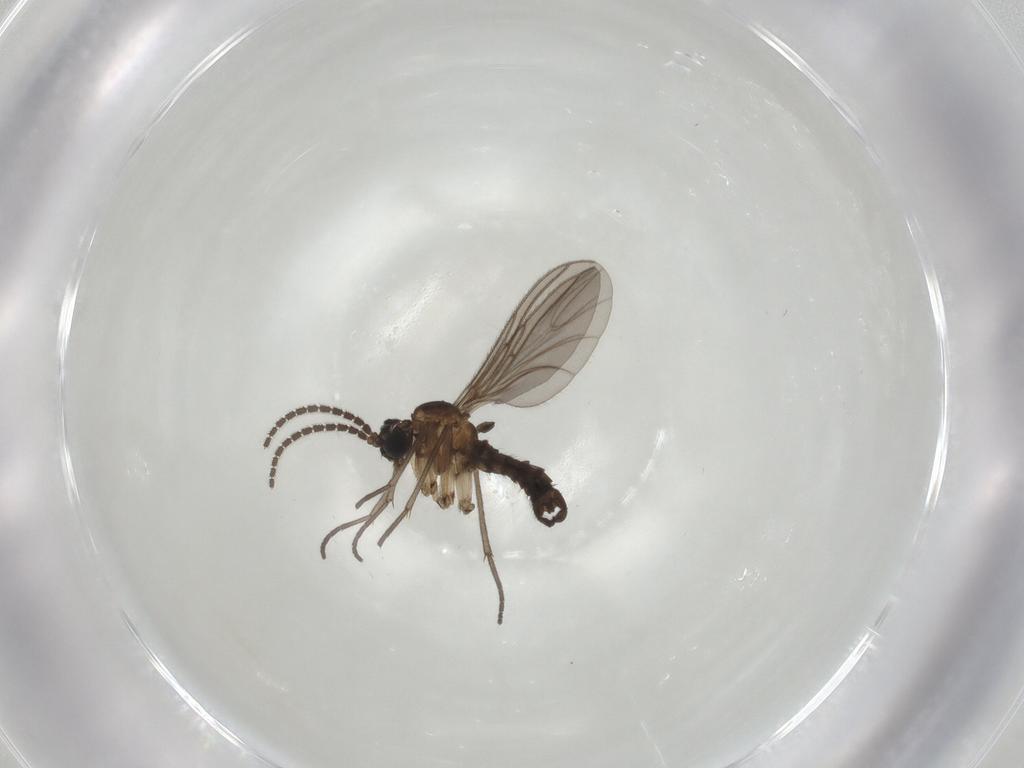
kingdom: Animalia
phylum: Arthropoda
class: Insecta
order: Diptera
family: Sciaridae
